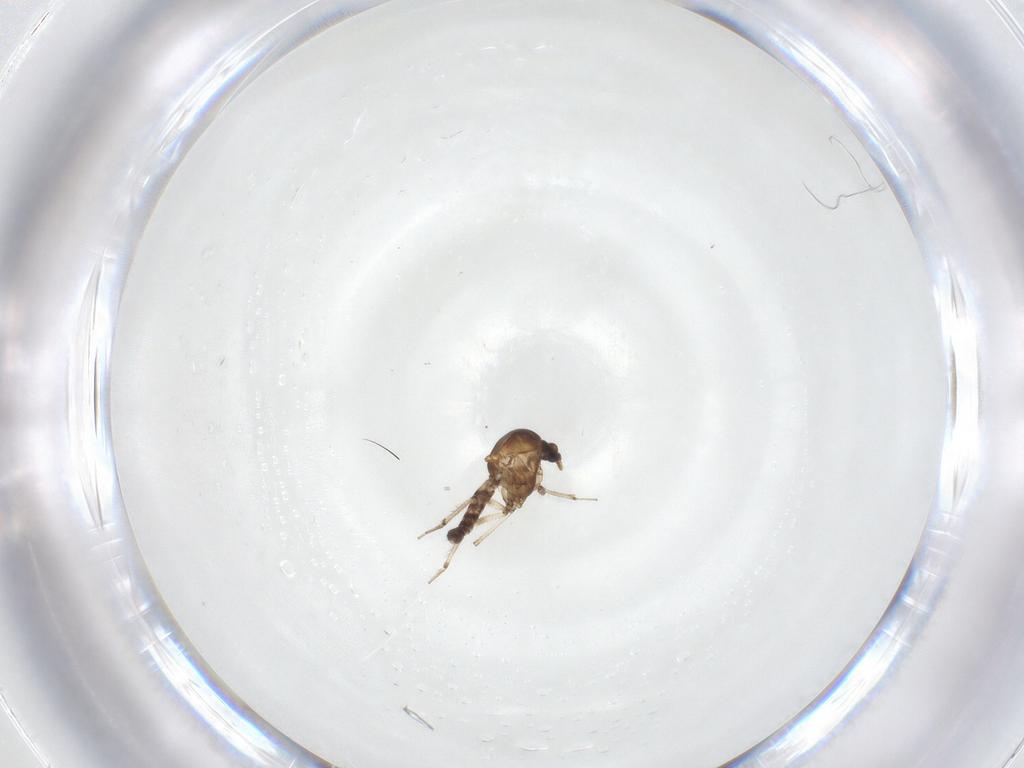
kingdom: Animalia
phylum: Arthropoda
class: Insecta
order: Diptera
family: Ceratopogonidae
